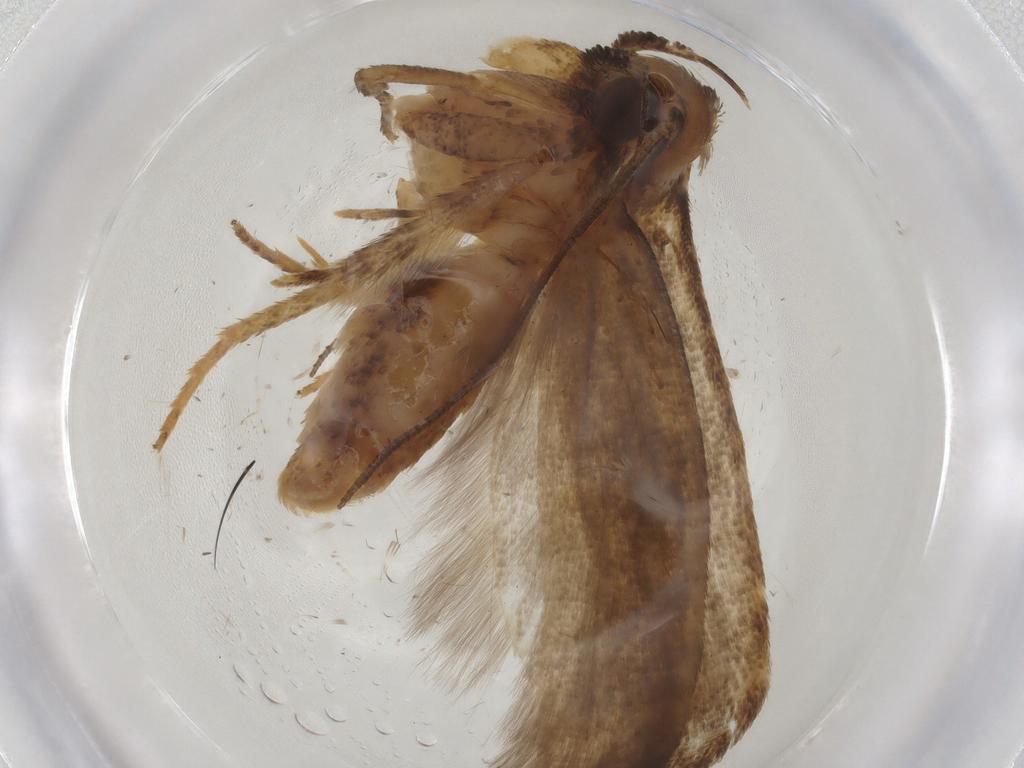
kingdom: Animalia
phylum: Arthropoda
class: Insecta
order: Lepidoptera
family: Gelechiidae
